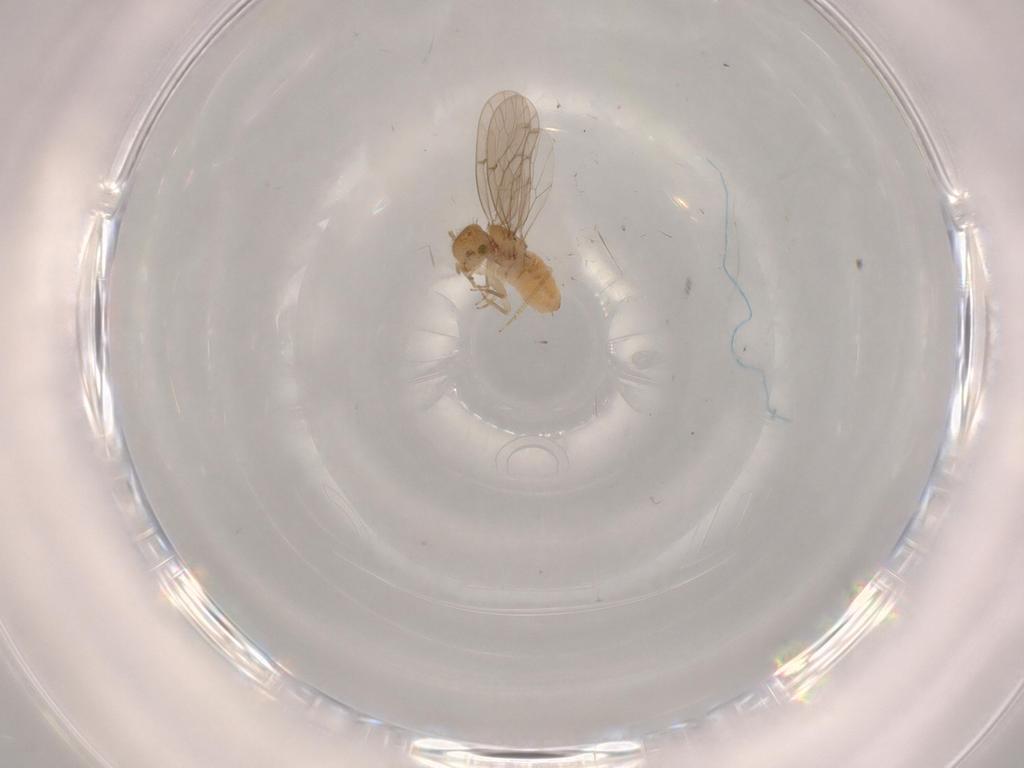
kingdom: Animalia
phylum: Arthropoda
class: Insecta
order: Psocodea
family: Ectopsocidae
